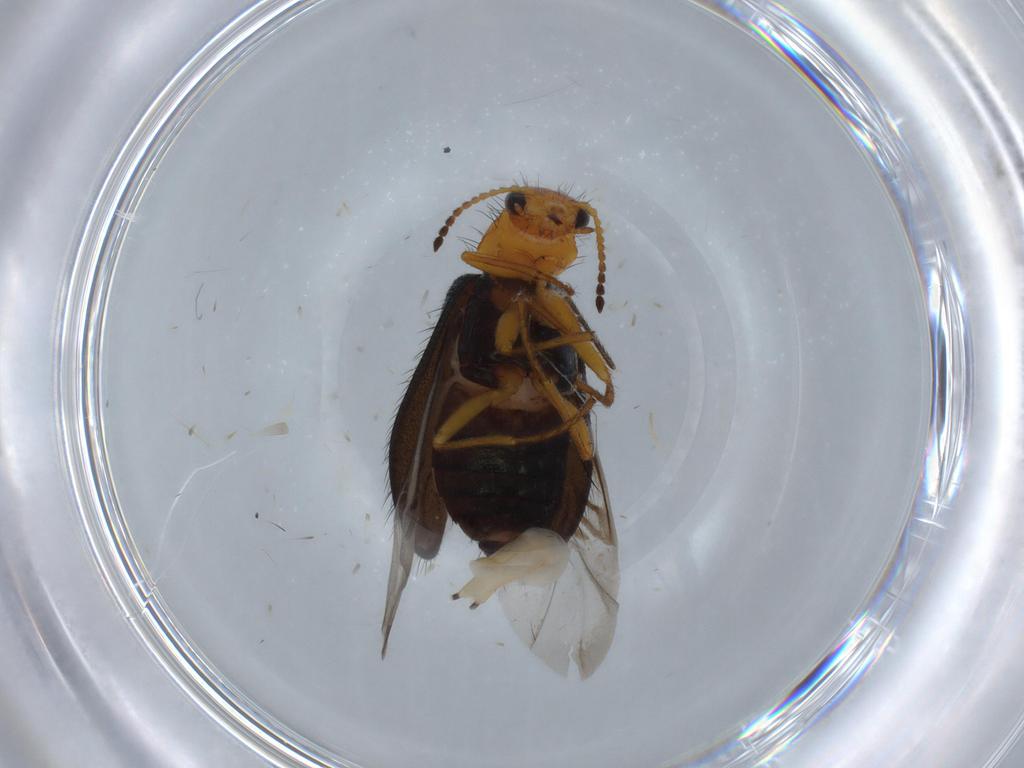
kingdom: Animalia
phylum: Arthropoda
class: Insecta
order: Coleoptera
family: Melyridae
